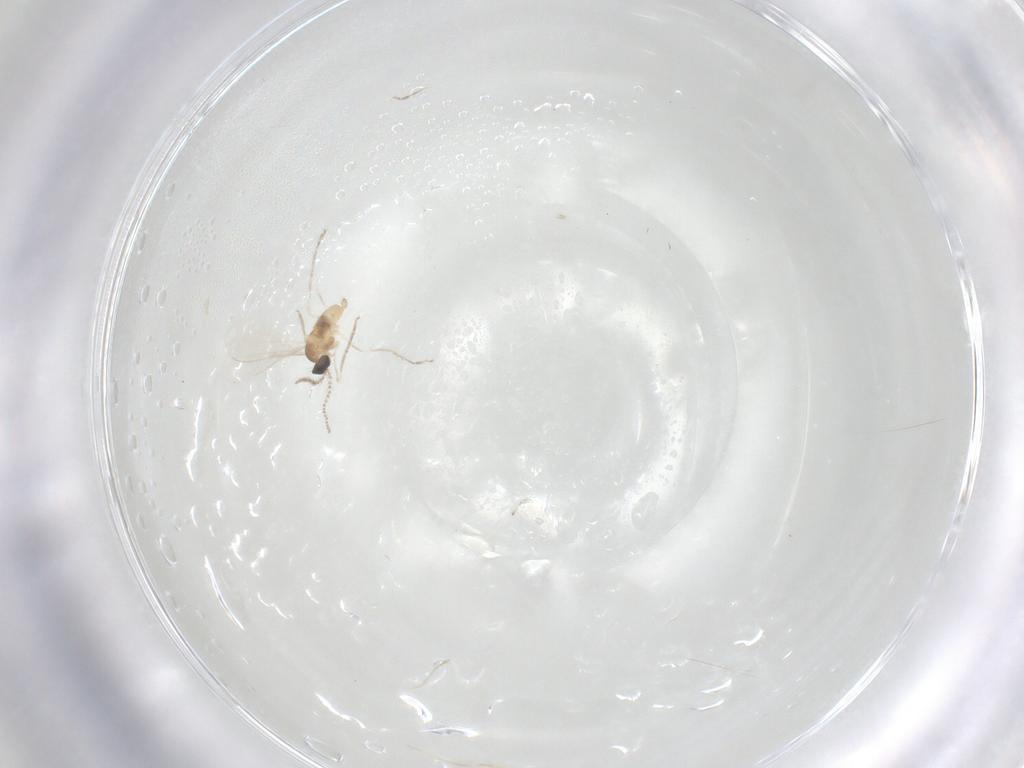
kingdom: Animalia
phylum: Arthropoda
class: Insecta
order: Diptera
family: Cecidomyiidae
